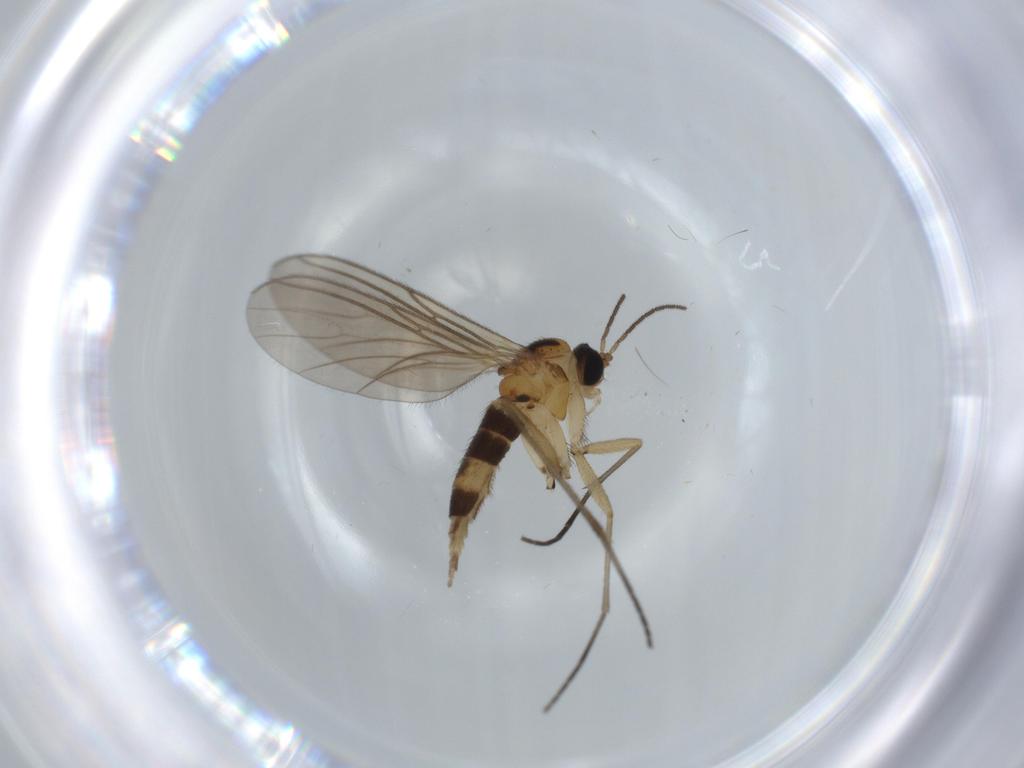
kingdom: Animalia
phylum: Arthropoda
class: Insecta
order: Diptera
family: Sciaridae
